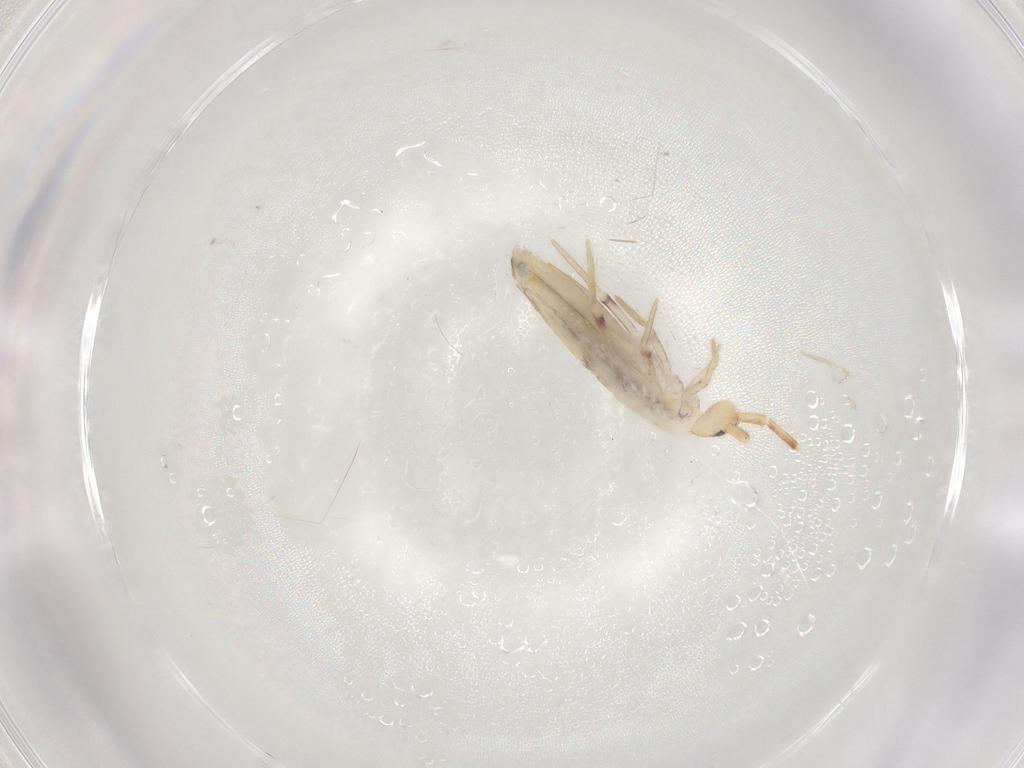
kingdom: Animalia
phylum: Arthropoda
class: Collembola
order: Poduromorpha
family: Hypogastruridae
